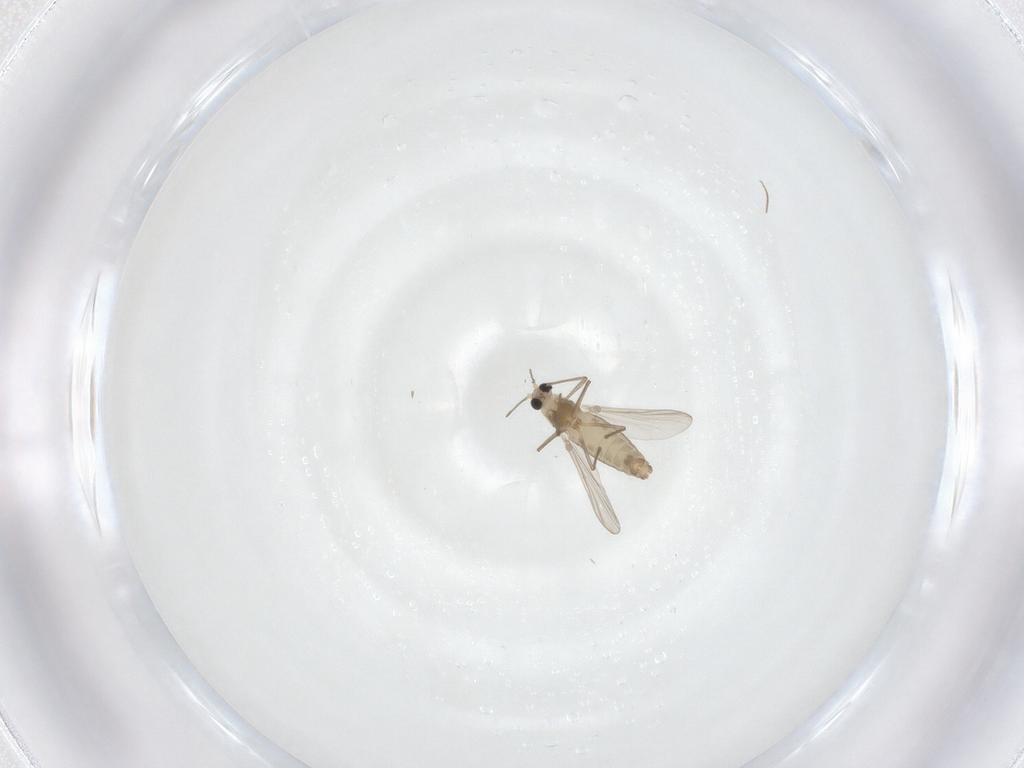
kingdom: Animalia
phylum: Arthropoda
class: Insecta
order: Diptera
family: Chironomidae
